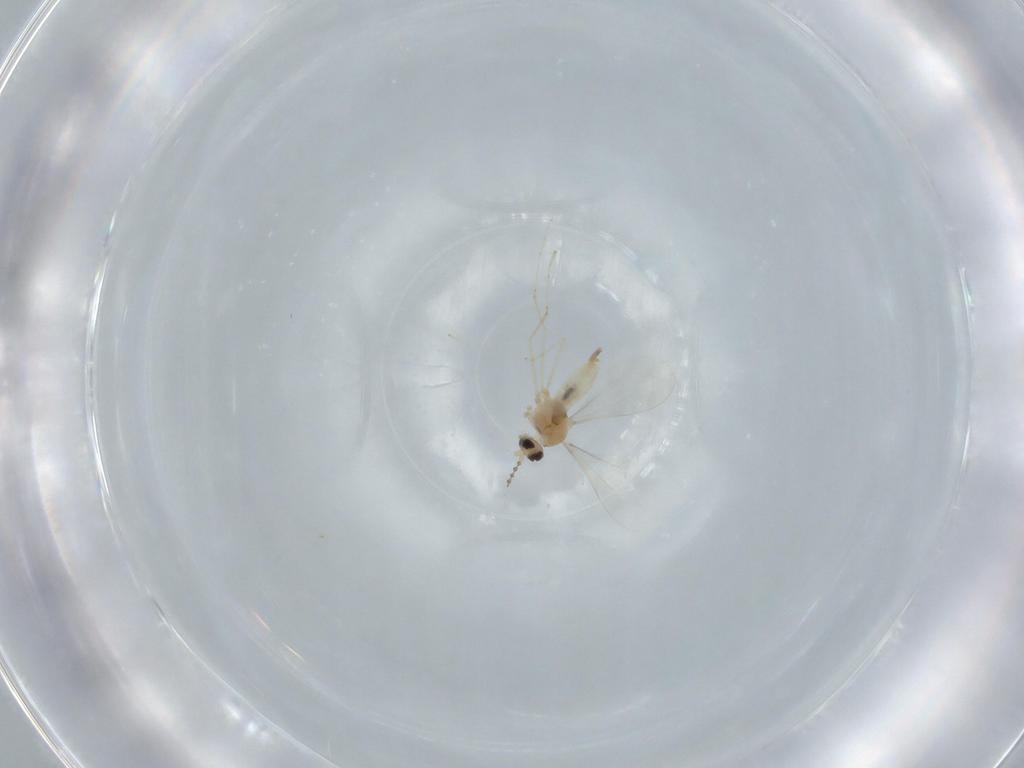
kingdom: Animalia
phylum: Arthropoda
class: Insecta
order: Diptera
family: Cecidomyiidae
